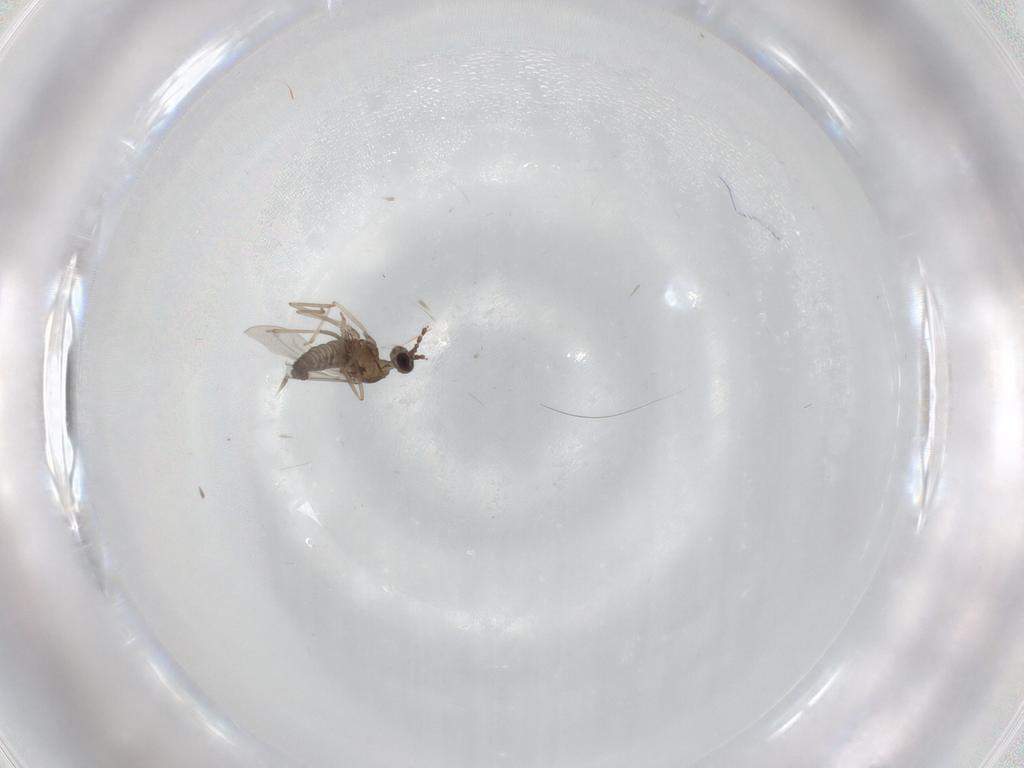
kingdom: Animalia
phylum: Arthropoda
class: Insecta
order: Diptera
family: Cecidomyiidae
